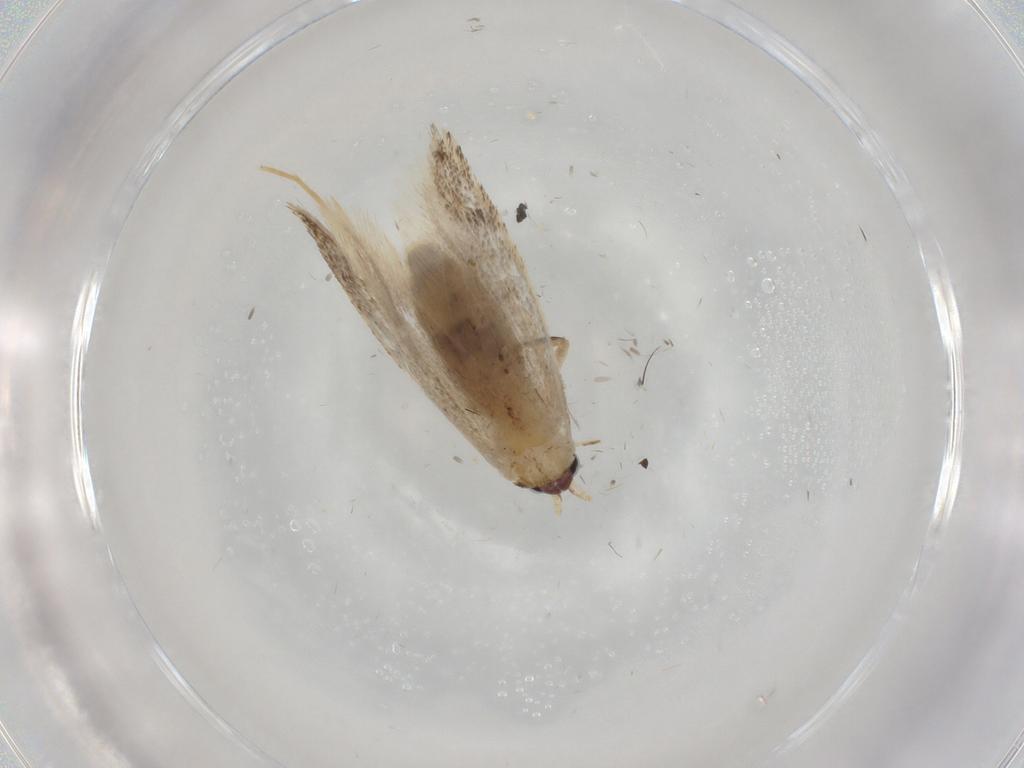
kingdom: Animalia
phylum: Arthropoda
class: Insecta
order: Lepidoptera
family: Nepticulidae
